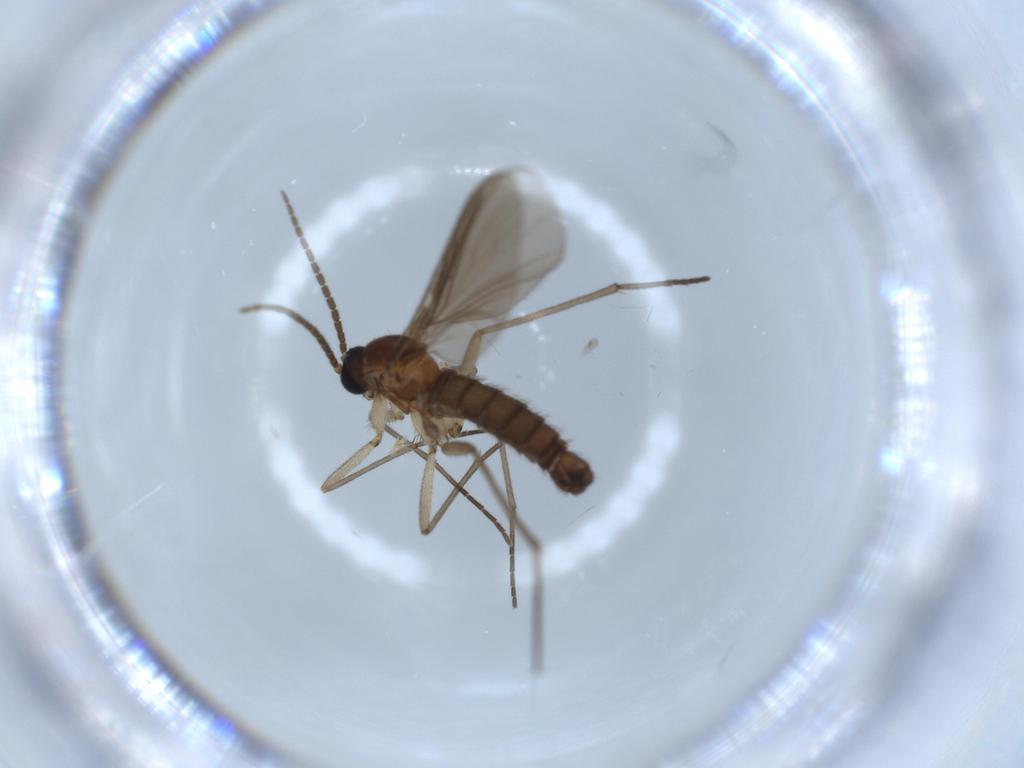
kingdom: Animalia
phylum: Arthropoda
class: Insecta
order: Diptera
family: Sciaridae
